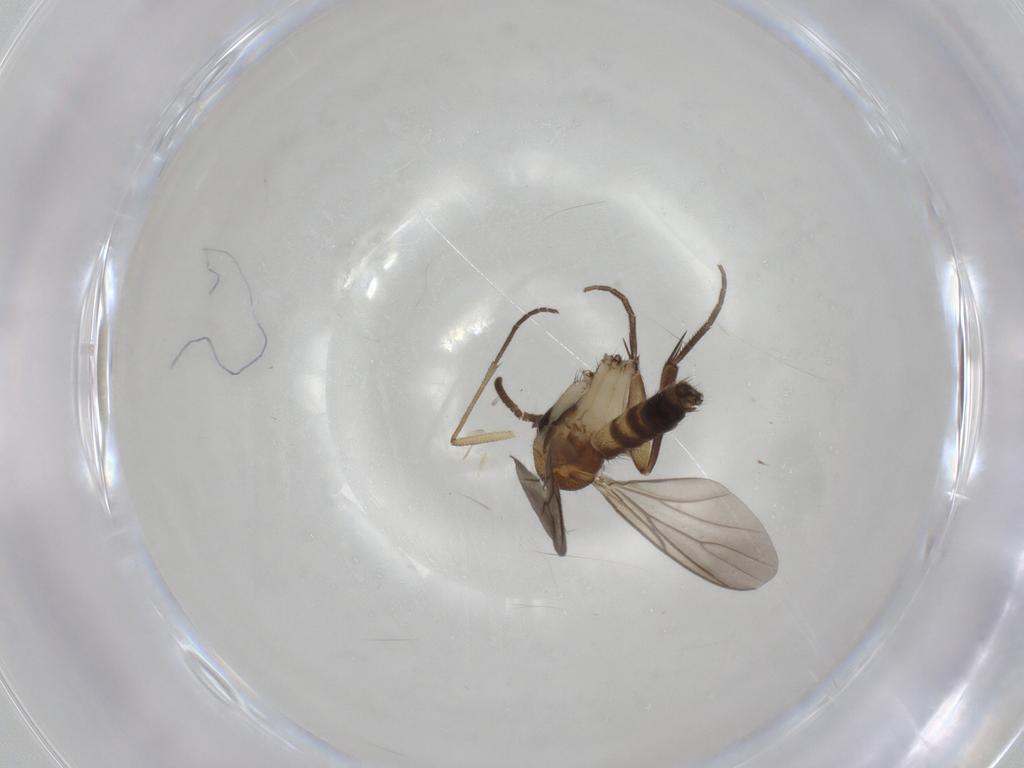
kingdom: Animalia
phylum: Arthropoda
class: Insecta
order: Diptera
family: Mycetophilidae
